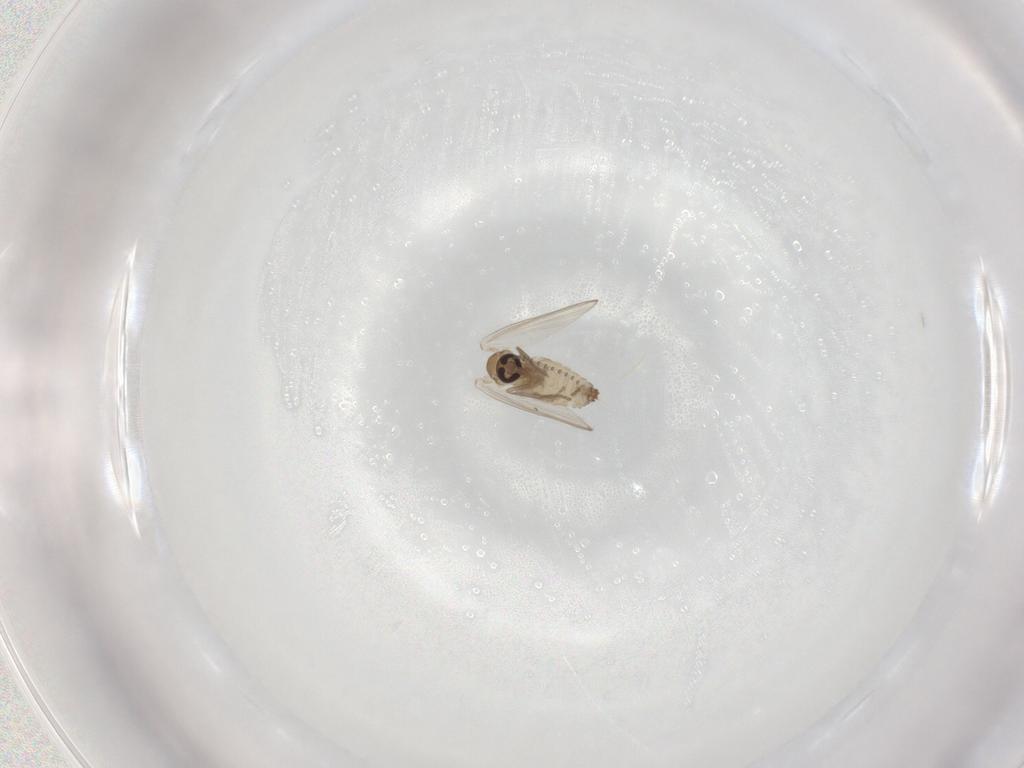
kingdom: Animalia
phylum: Arthropoda
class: Insecta
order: Diptera
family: Psychodidae
